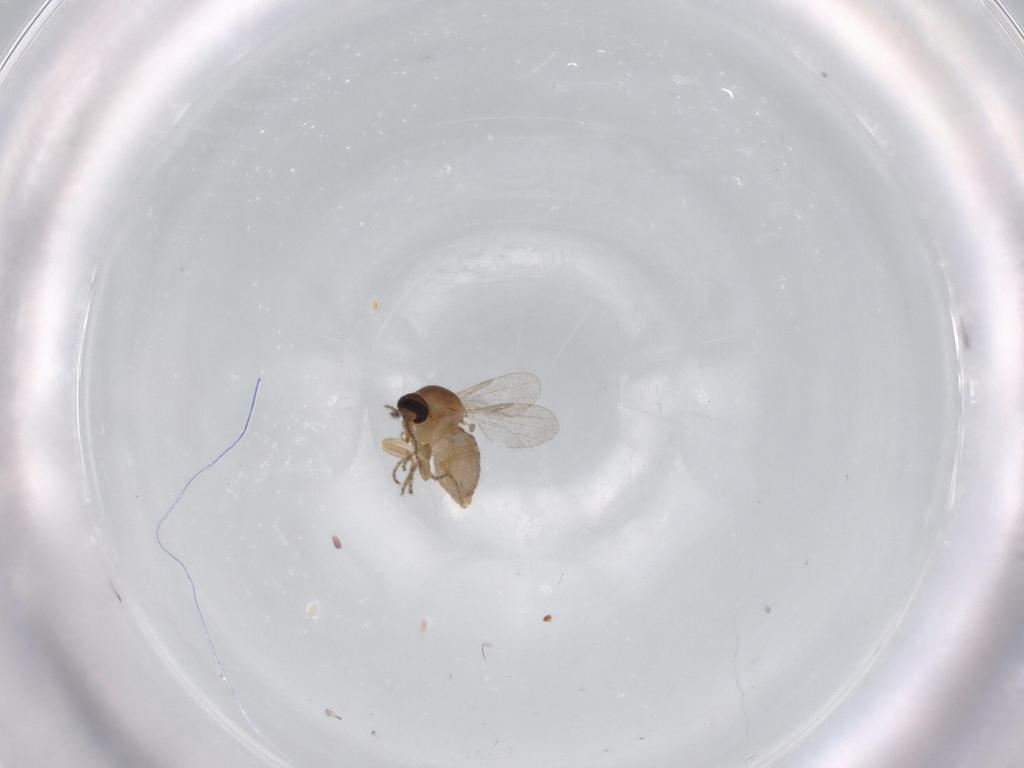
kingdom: Animalia
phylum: Arthropoda
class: Insecta
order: Diptera
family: Ceratopogonidae
